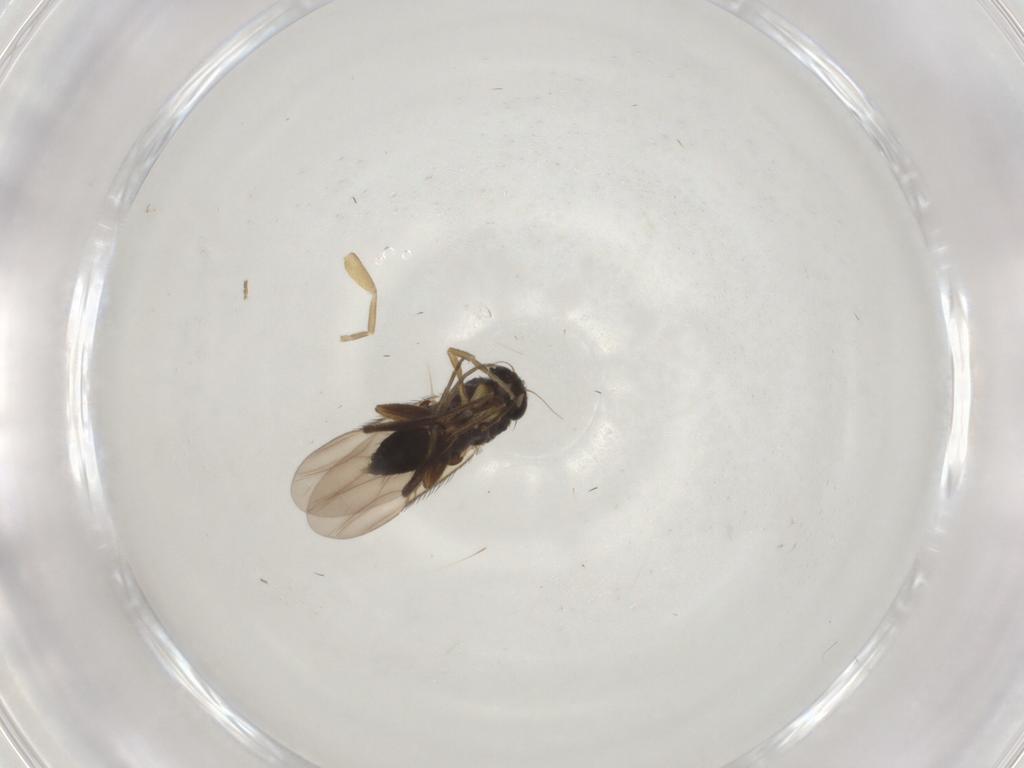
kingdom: Animalia
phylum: Arthropoda
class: Insecta
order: Diptera
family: Phoridae
